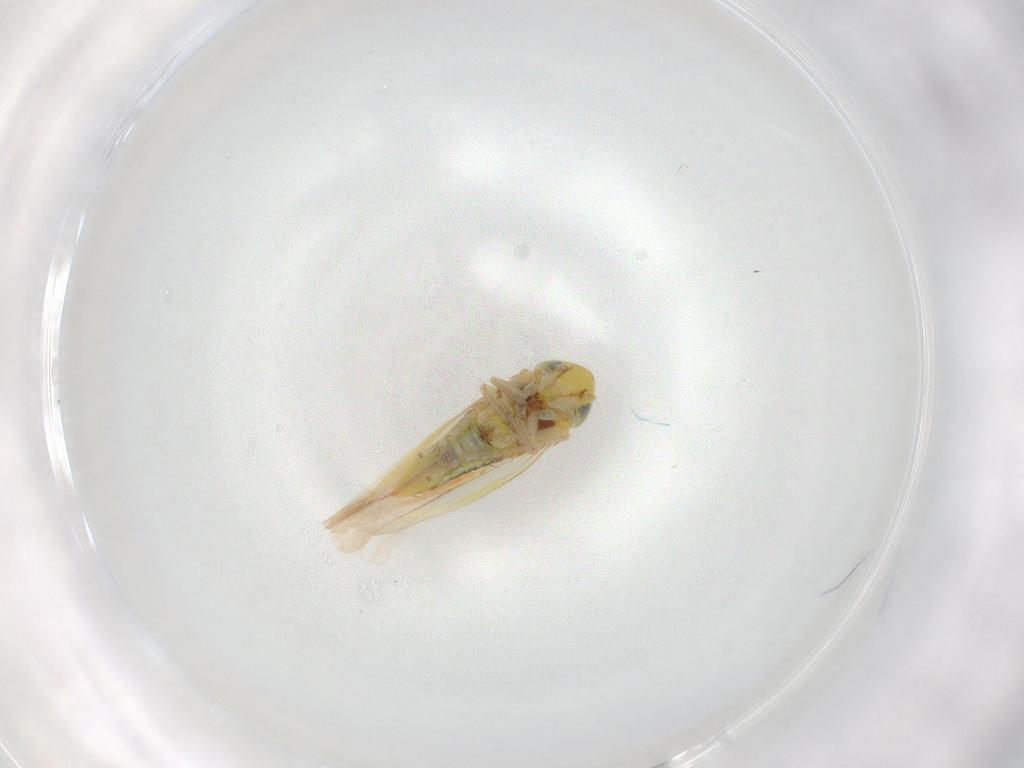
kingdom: Animalia
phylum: Arthropoda
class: Insecta
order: Hemiptera
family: Cicadellidae
